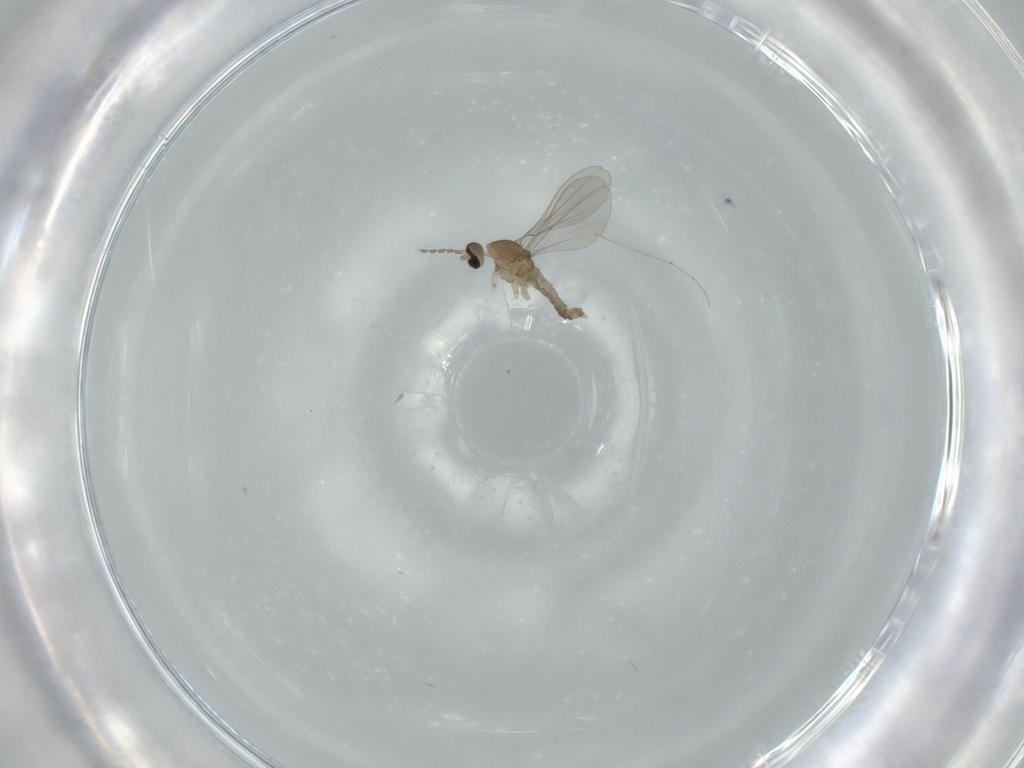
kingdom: Animalia
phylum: Arthropoda
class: Insecta
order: Diptera
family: Cecidomyiidae
